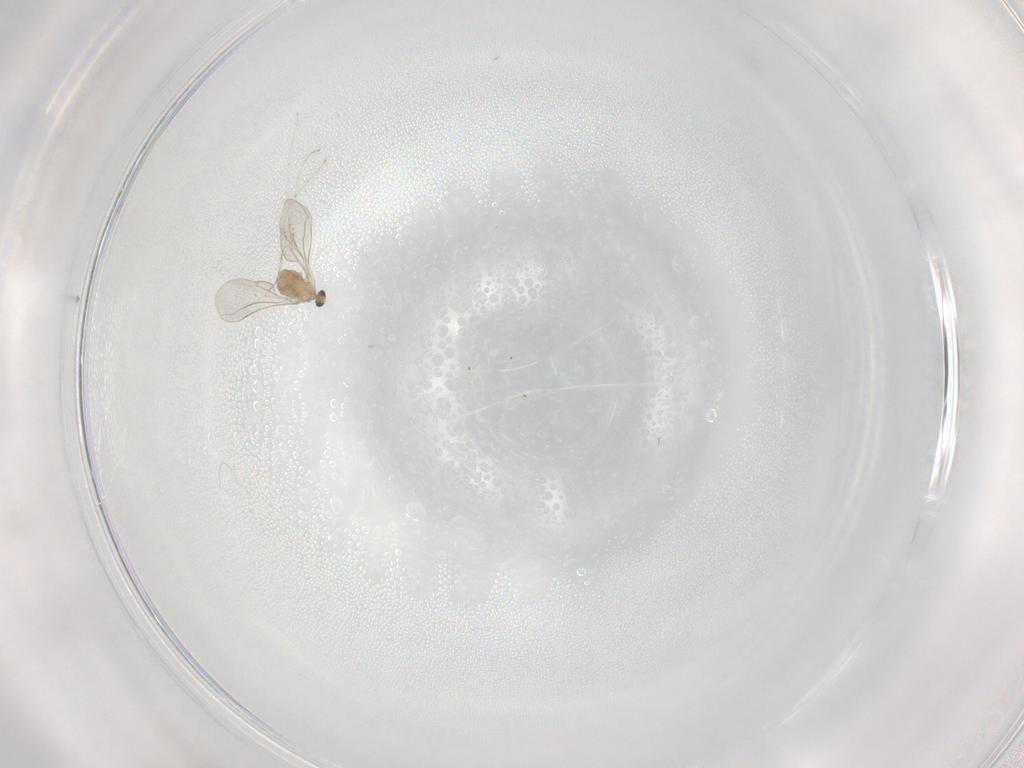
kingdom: Animalia
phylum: Arthropoda
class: Insecta
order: Diptera
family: Cecidomyiidae
